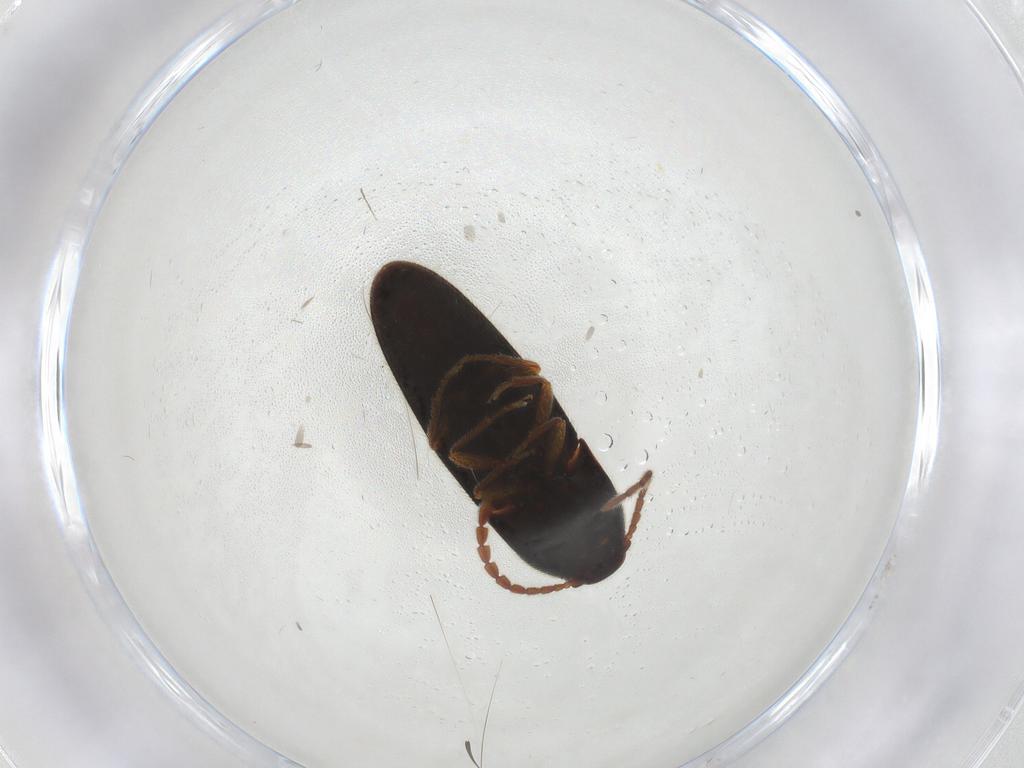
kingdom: Animalia
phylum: Arthropoda
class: Insecta
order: Coleoptera
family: Elateridae
